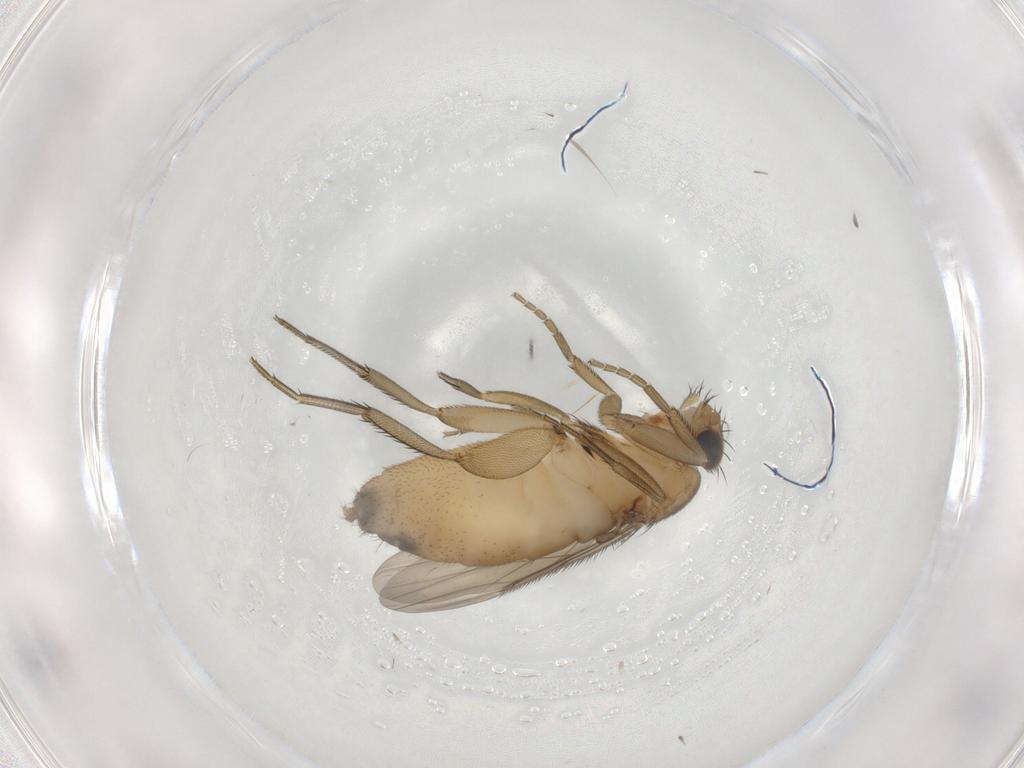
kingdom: Animalia
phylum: Arthropoda
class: Insecta
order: Diptera
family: Phoridae
